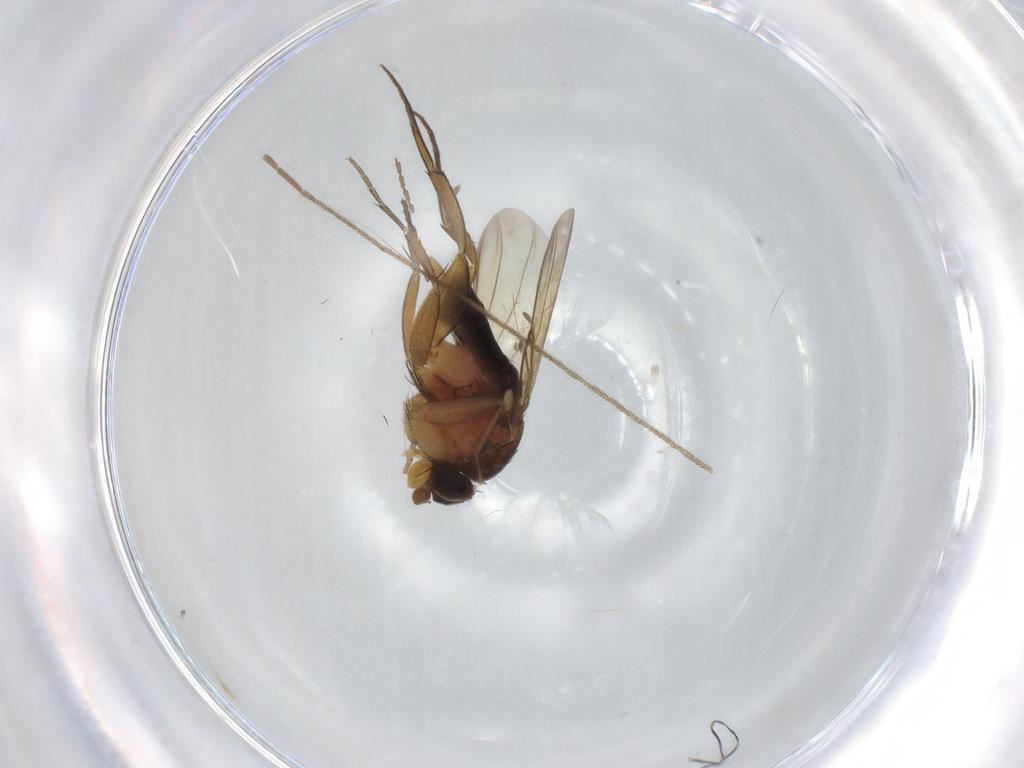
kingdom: Animalia
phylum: Arthropoda
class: Insecta
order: Diptera
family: Phoridae
